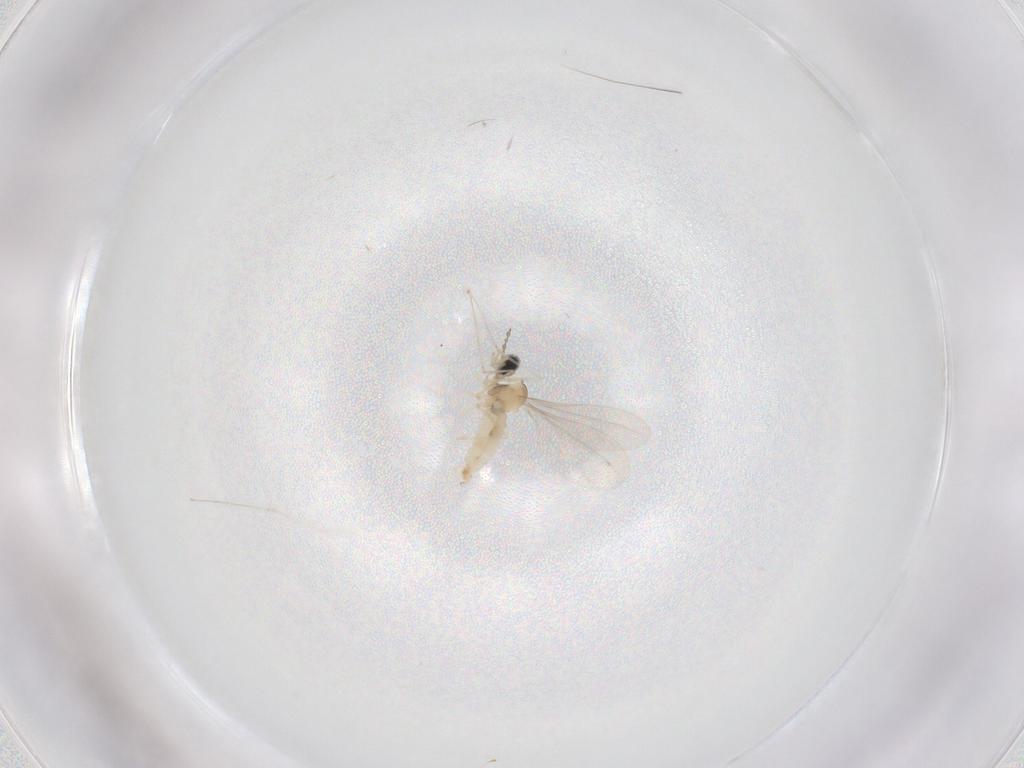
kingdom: Animalia
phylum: Arthropoda
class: Insecta
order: Diptera
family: Cecidomyiidae
